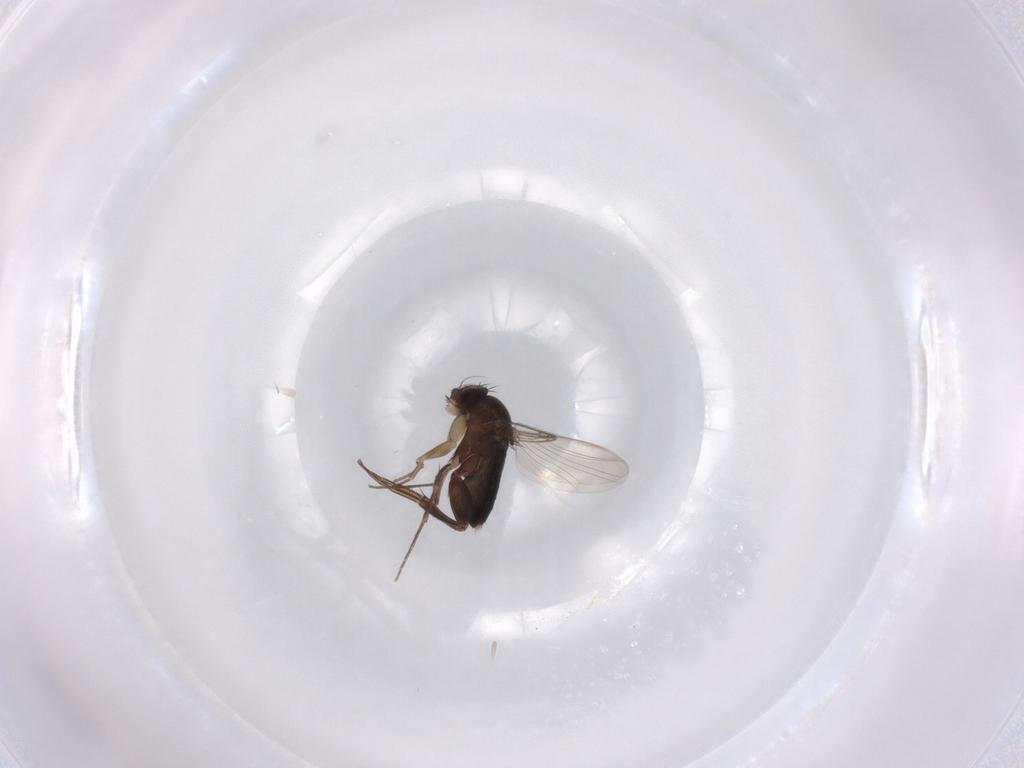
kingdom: Animalia
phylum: Arthropoda
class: Insecta
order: Diptera
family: Phoridae
